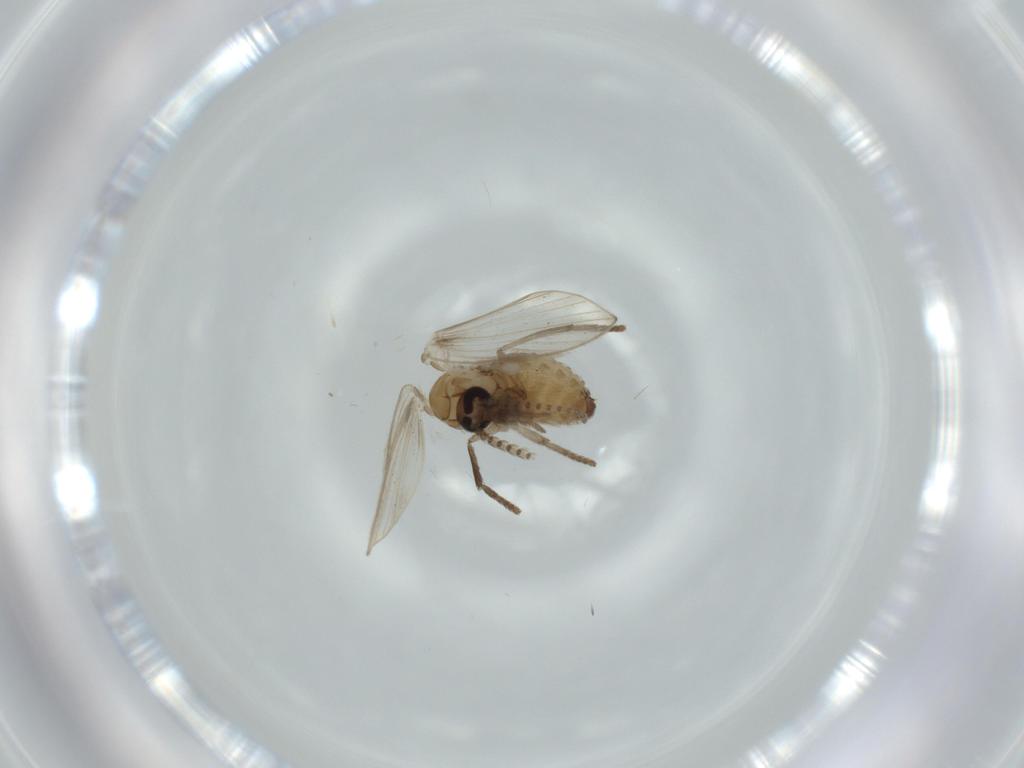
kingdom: Animalia
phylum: Arthropoda
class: Insecta
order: Diptera
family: Psychodidae
